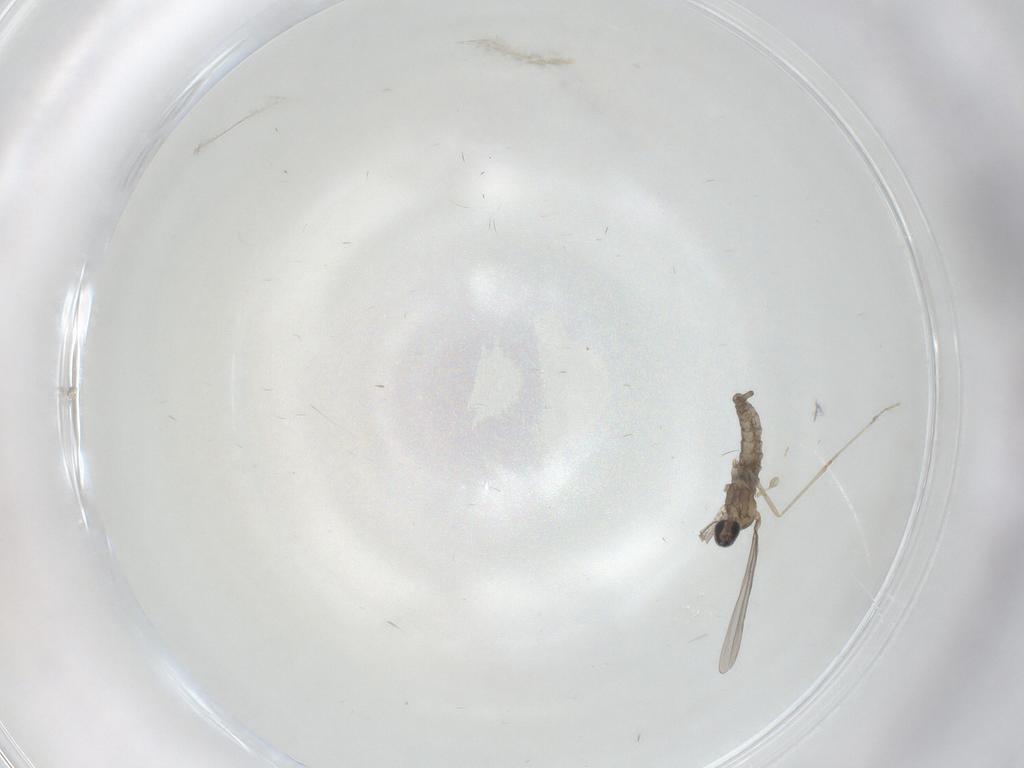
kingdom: Animalia
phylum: Arthropoda
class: Insecta
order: Diptera
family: Cecidomyiidae
